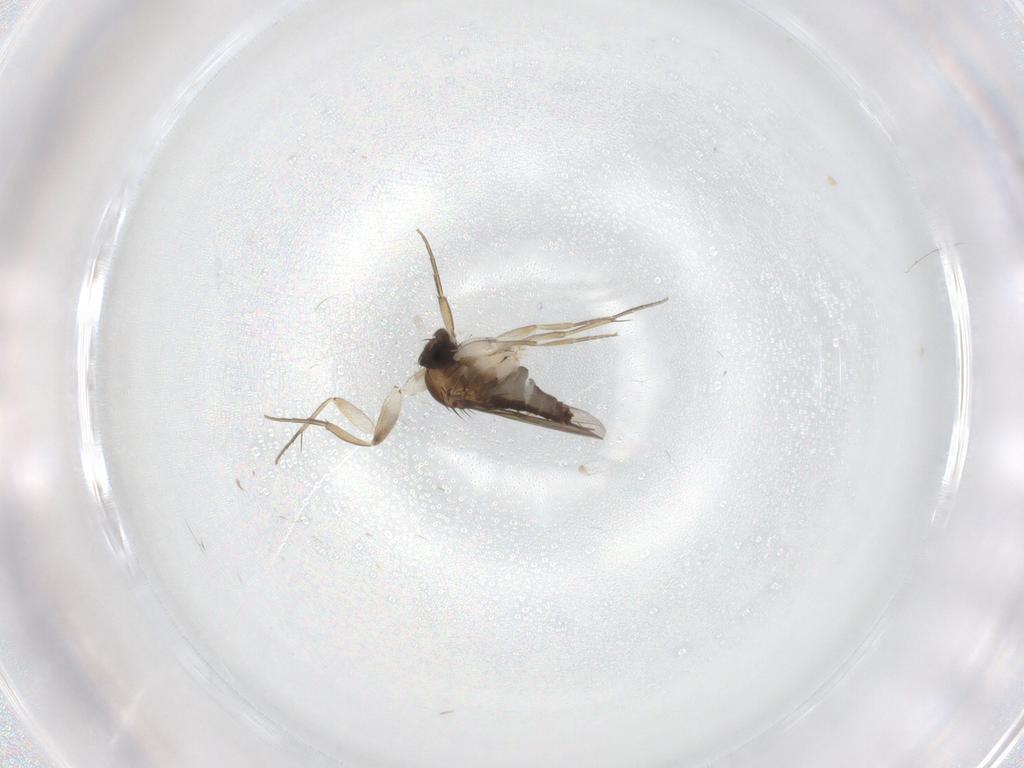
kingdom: Animalia
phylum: Arthropoda
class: Insecta
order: Diptera
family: Phoridae
